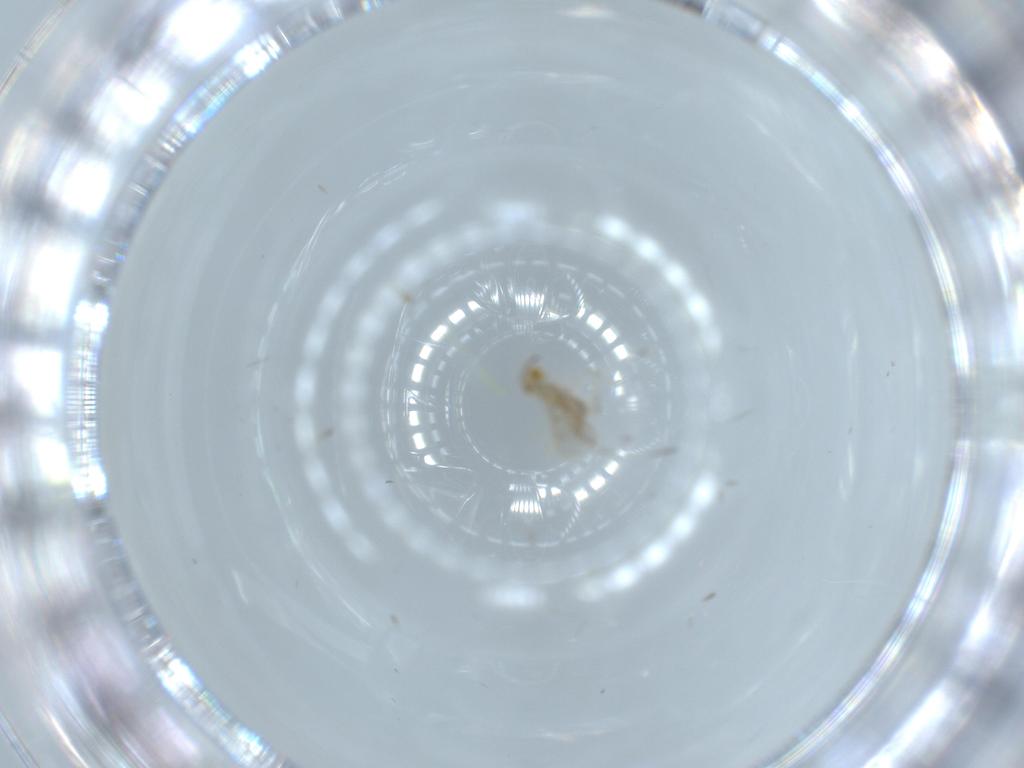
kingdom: Animalia
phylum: Arthropoda
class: Insecta
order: Hymenoptera
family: Aphelinidae
